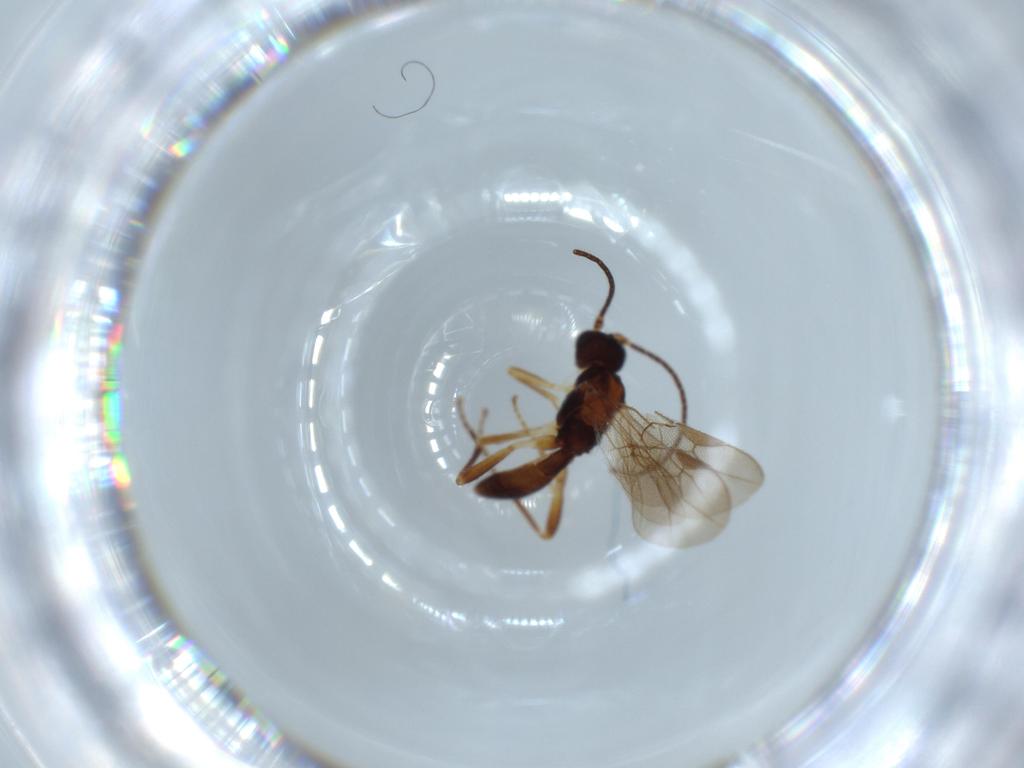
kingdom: Animalia
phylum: Arthropoda
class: Insecta
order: Hymenoptera
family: Braconidae
